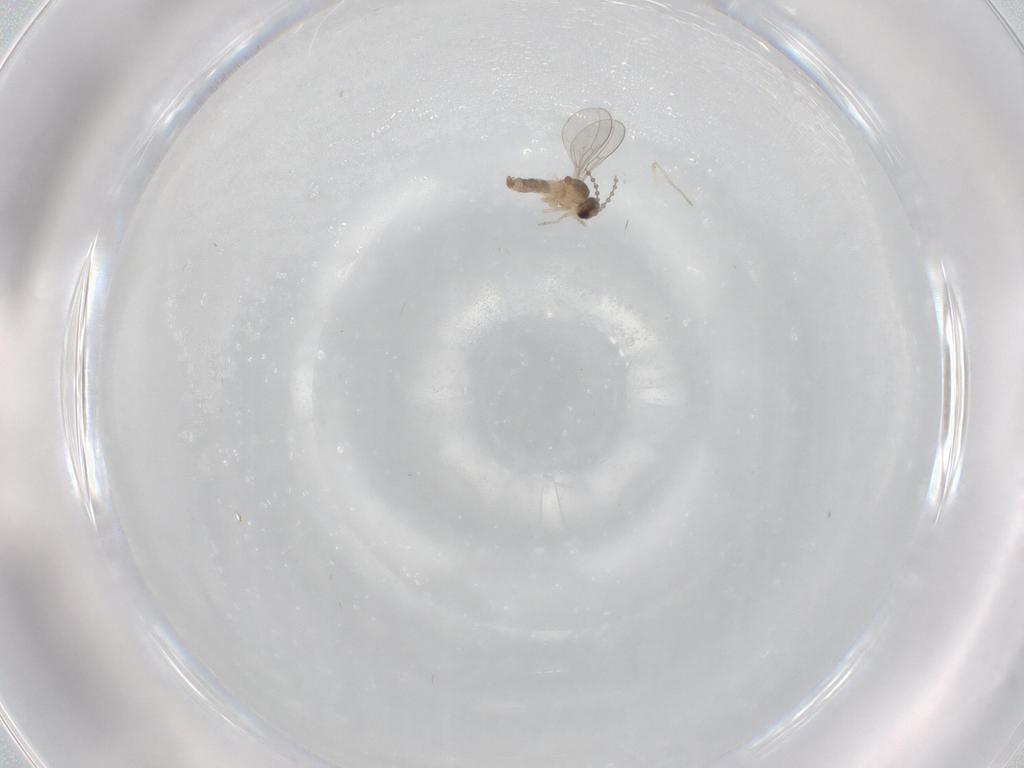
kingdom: Animalia
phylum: Arthropoda
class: Insecta
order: Diptera
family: Cecidomyiidae
